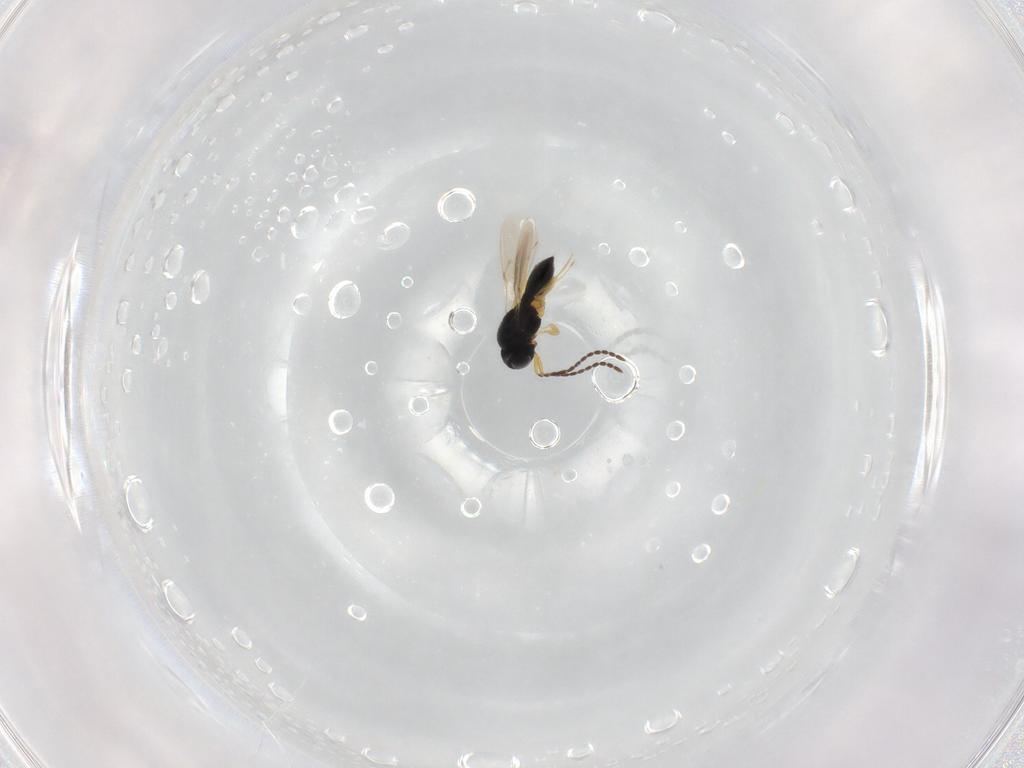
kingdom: Animalia
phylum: Arthropoda
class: Insecta
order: Hymenoptera
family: Scelionidae
